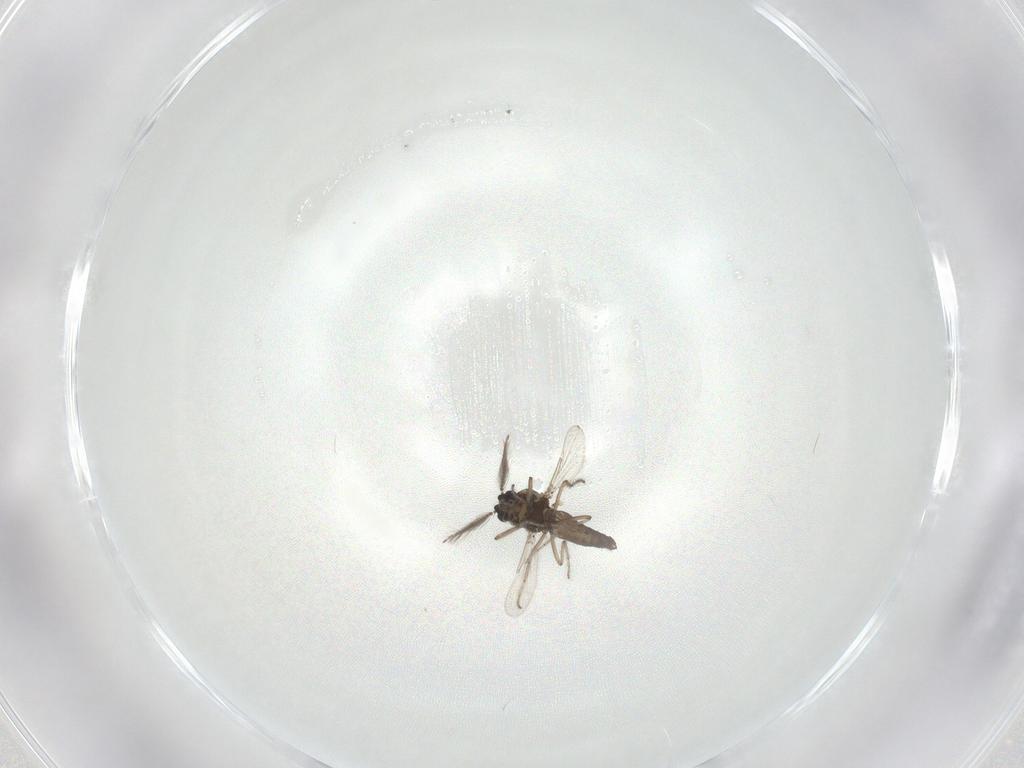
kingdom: Animalia
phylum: Arthropoda
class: Insecta
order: Diptera
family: Ceratopogonidae
